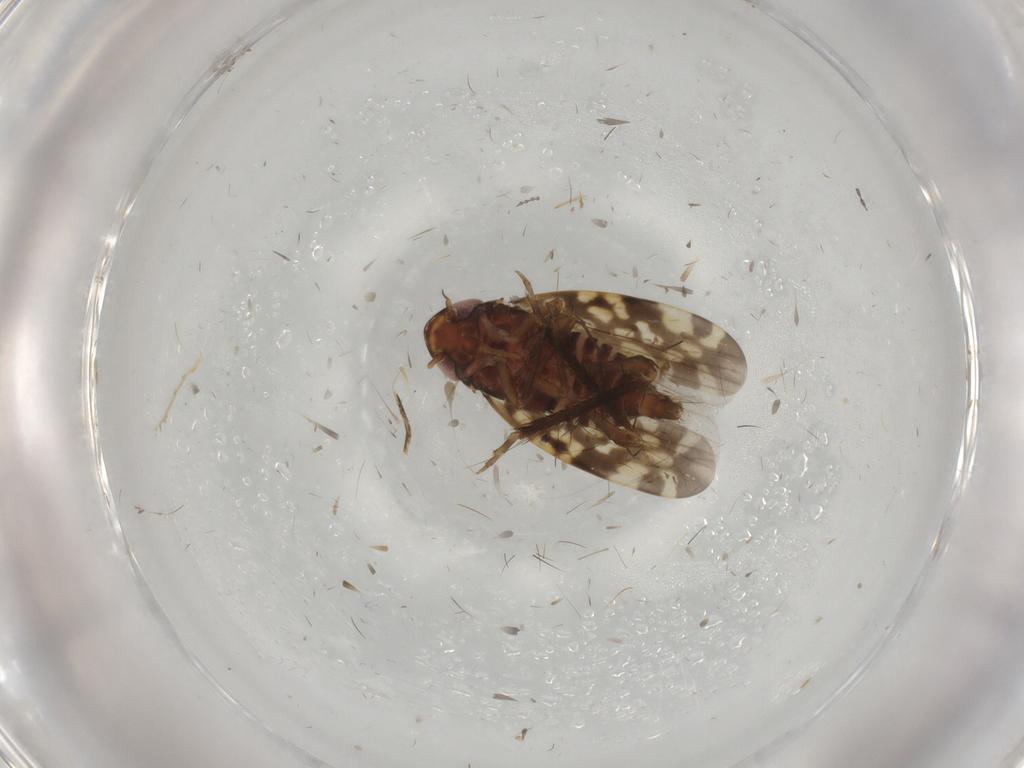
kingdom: Animalia
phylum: Arthropoda
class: Insecta
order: Hemiptera
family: Cicadellidae
